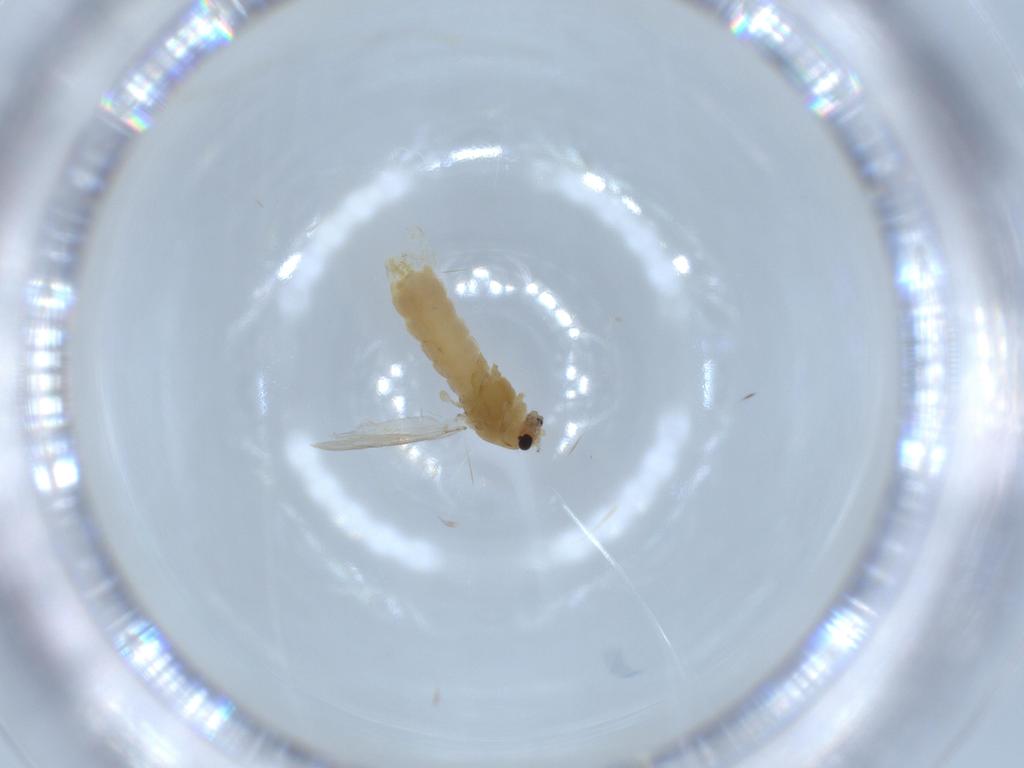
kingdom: Animalia
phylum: Arthropoda
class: Insecta
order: Diptera
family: Chironomidae
